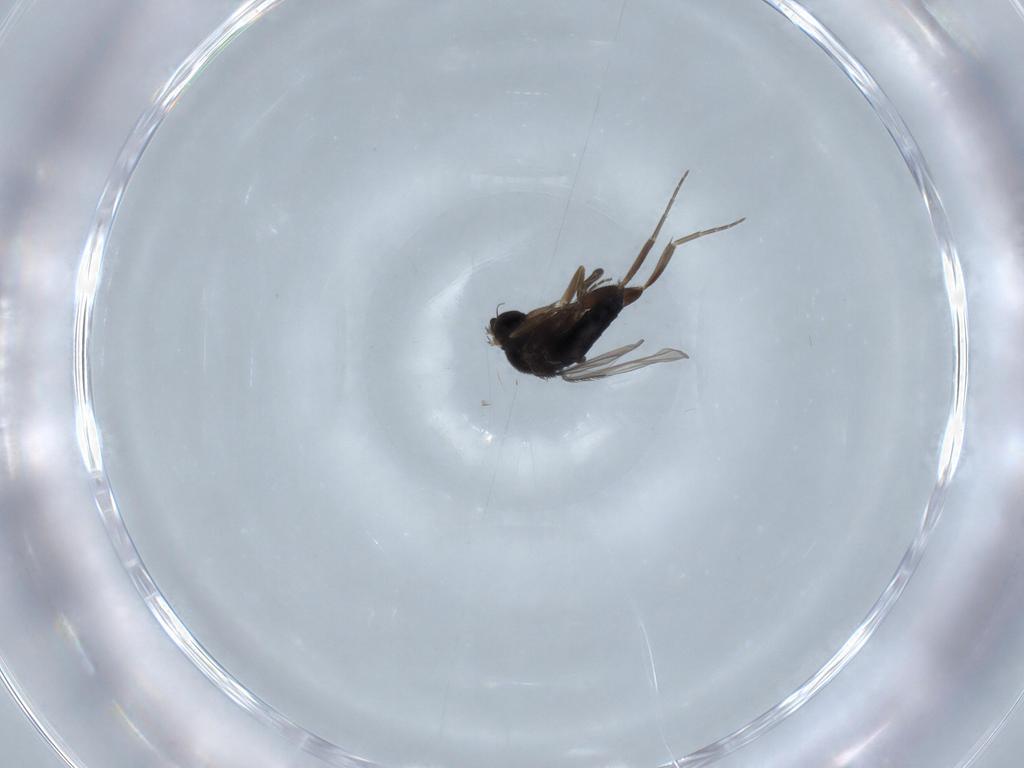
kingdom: Animalia
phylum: Arthropoda
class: Insecta
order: Diptera
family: Phoridae
